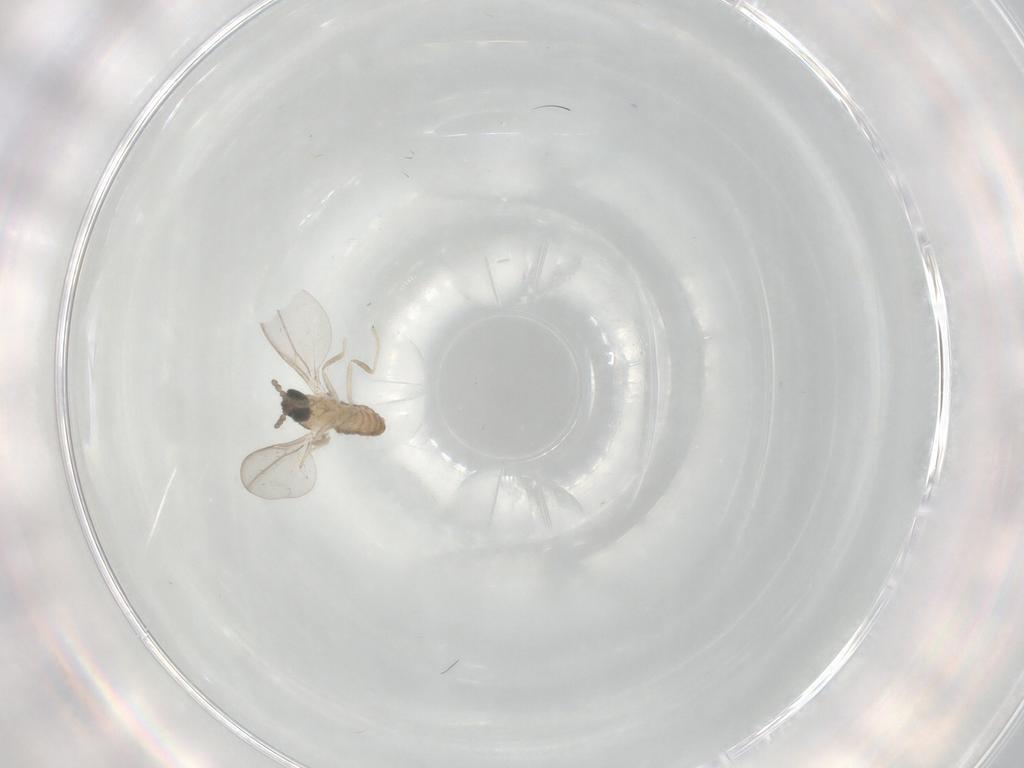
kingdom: Animalia
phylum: Arthropoda
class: Insecta
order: Diptera
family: Cecidomyiidae
